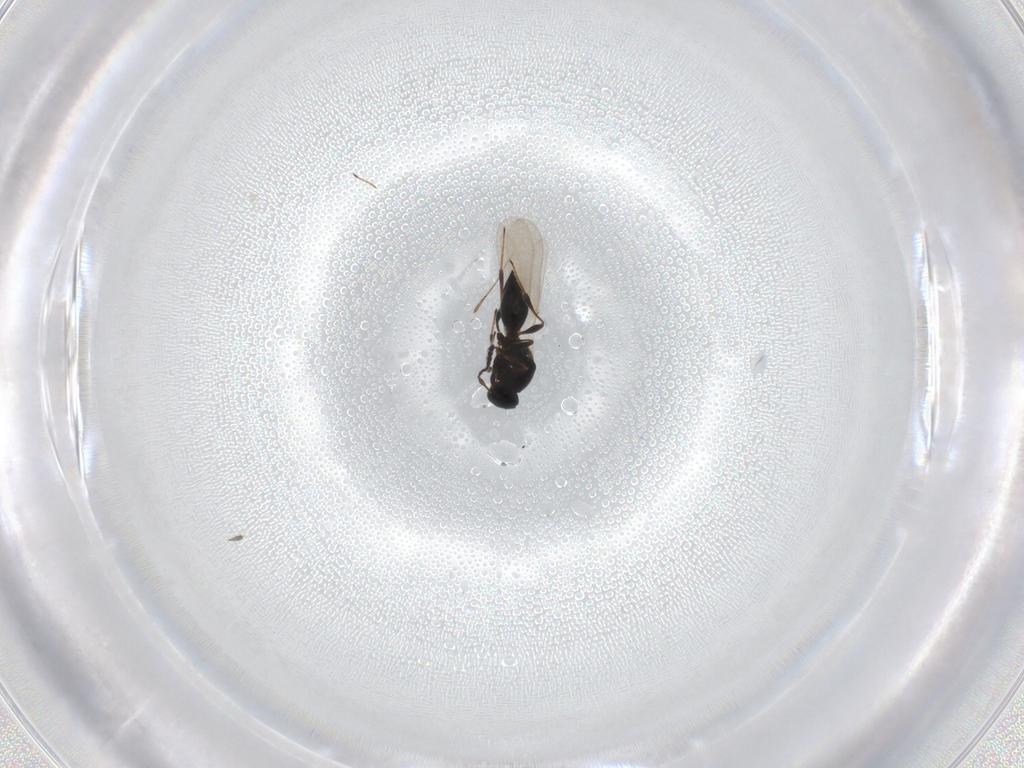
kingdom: Animalia
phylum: Arthropoda
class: Insecta
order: Hymenoptera
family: Platygastridae
